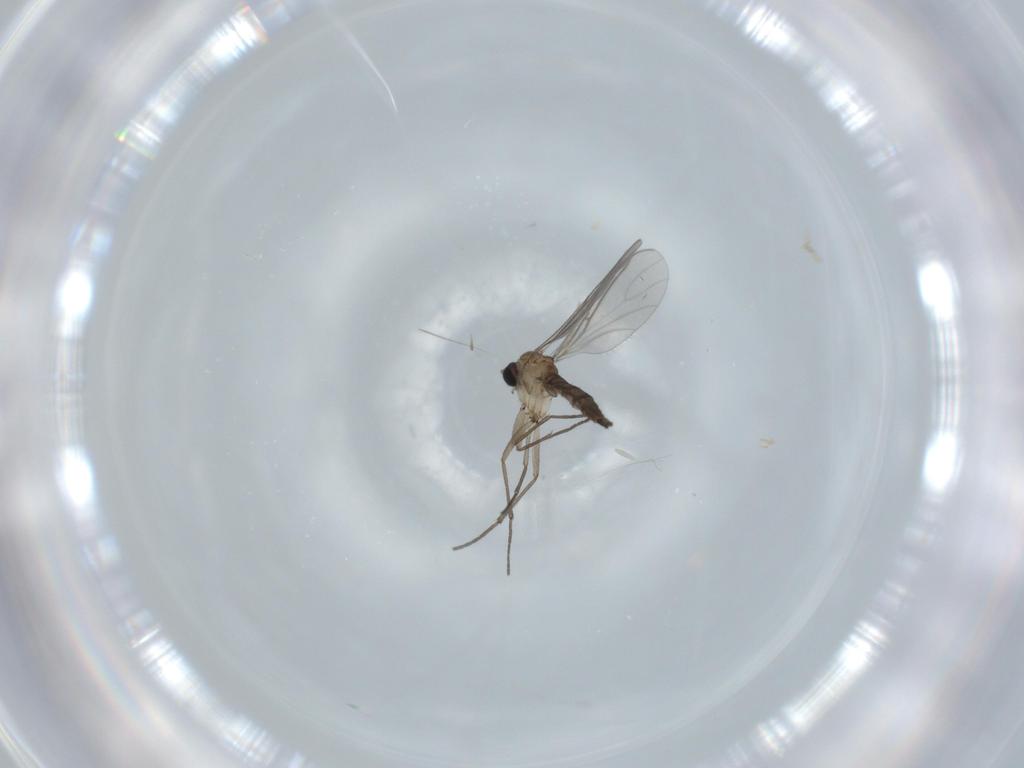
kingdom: Animalia
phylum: Arthropoda
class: Insecta
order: Diptera
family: Sciaridae
